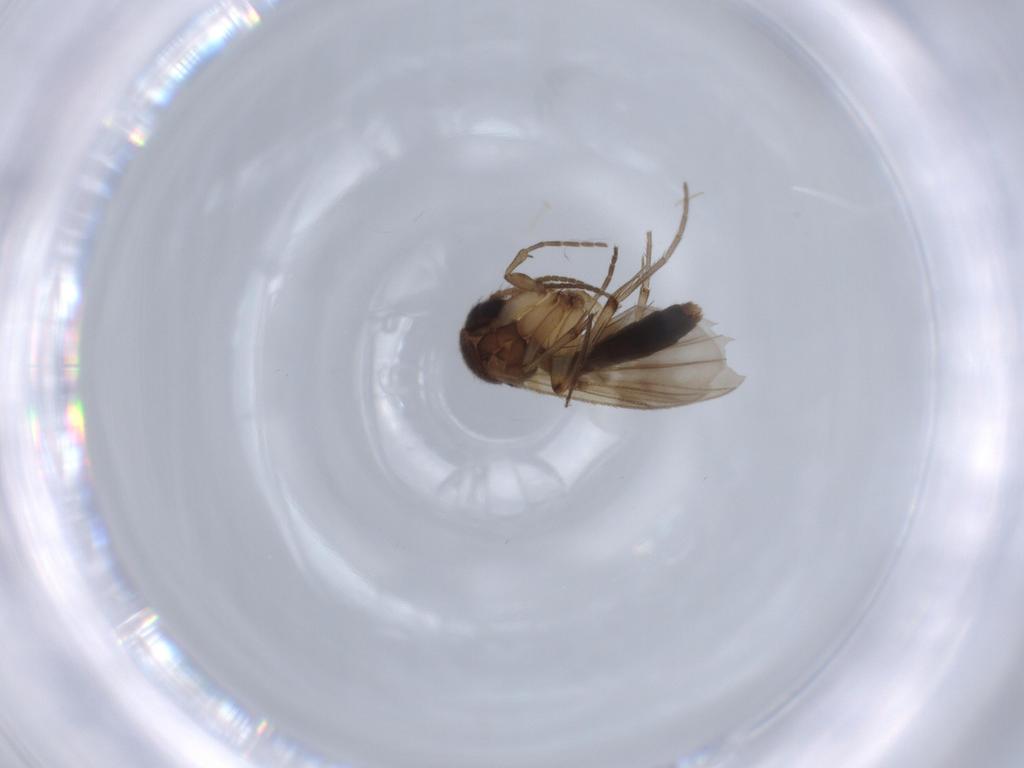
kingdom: Animalia
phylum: Arthropoda
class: Insecta
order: Diptera
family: Muscidae
